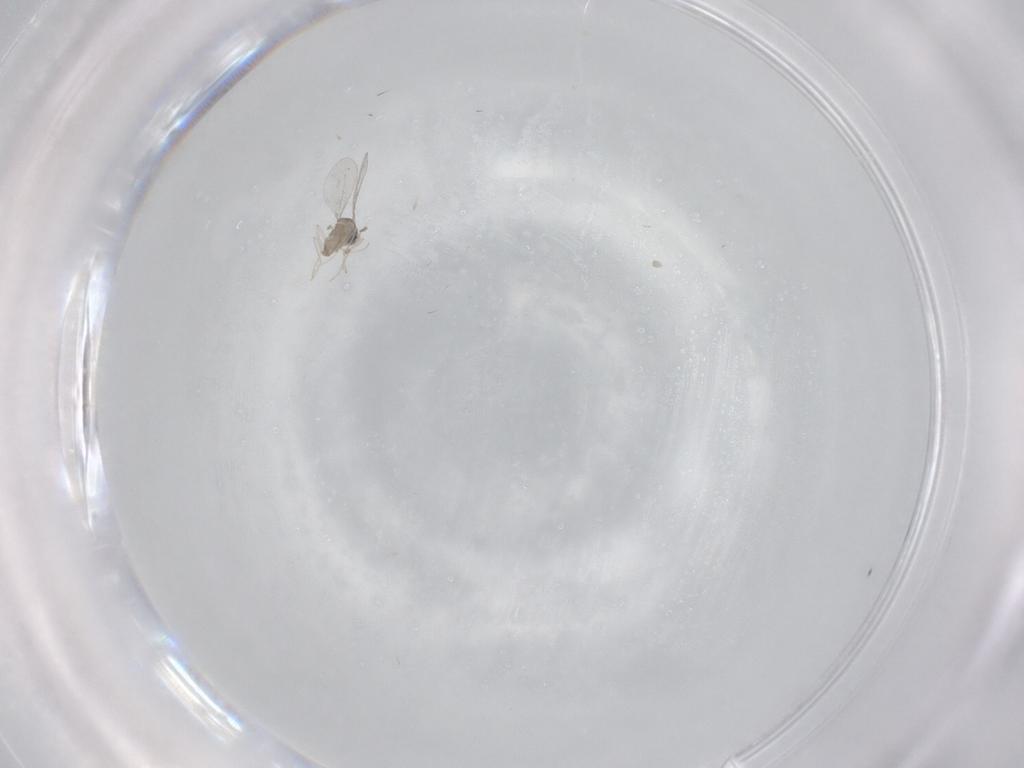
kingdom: Animalia
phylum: Arthropoda
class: Insecta
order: Diptera
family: Cecidomyiidae
